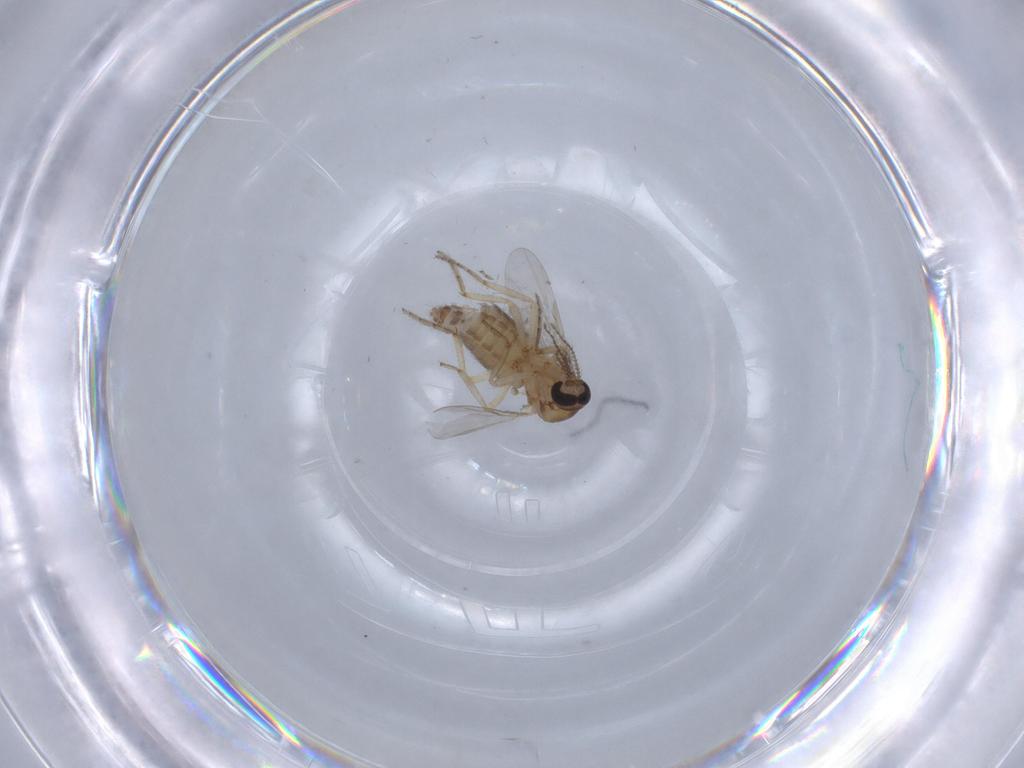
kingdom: Animalia
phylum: Arthropoda
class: Insecta
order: Diptera
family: Ceratopogonidae
